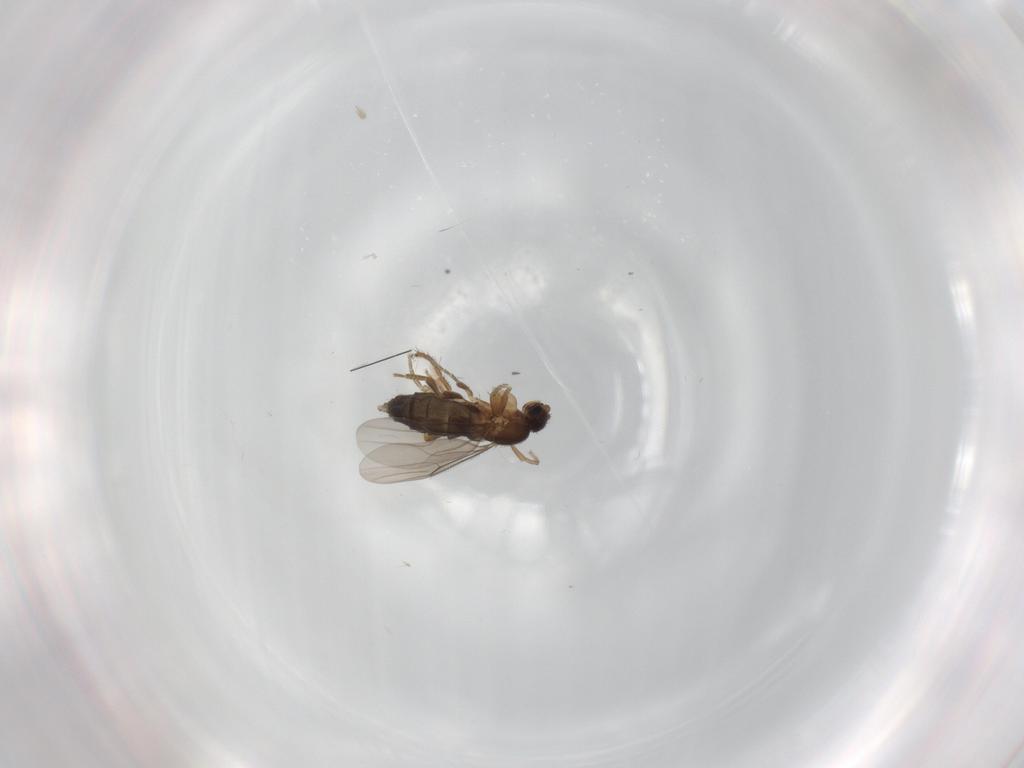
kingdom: Animalia
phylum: Arthropoda
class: Insecta
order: Diptera
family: Phoridae
